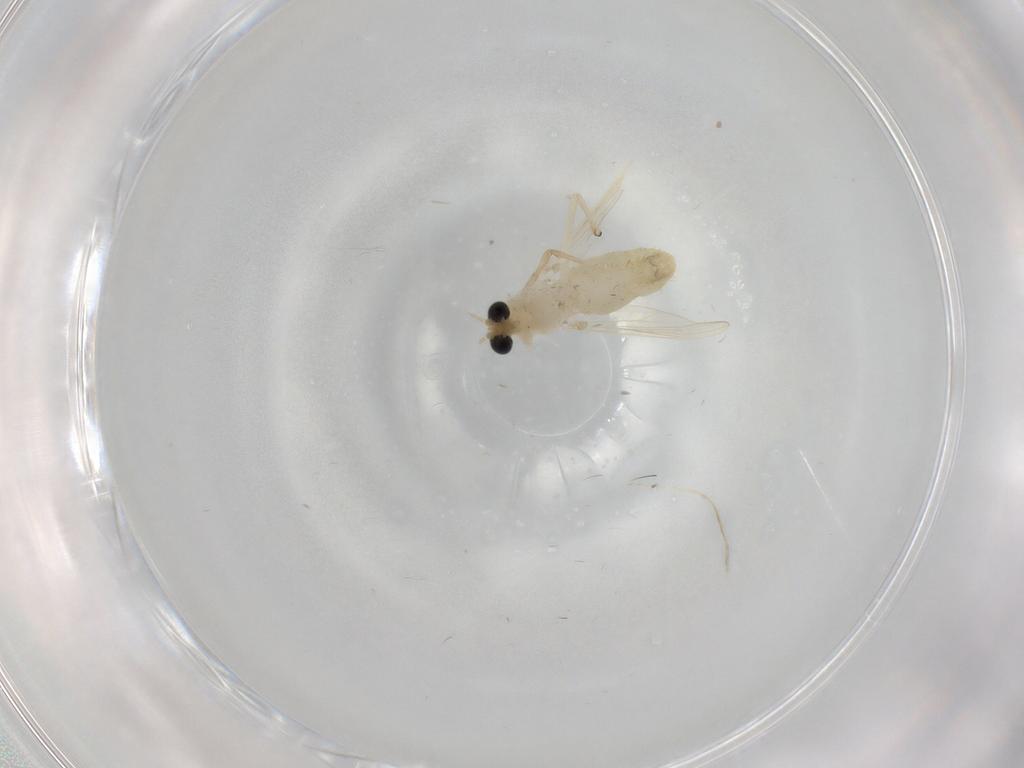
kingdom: Animalia
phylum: Arthropoda
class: Insecta
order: Diptera
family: Chironomidae
